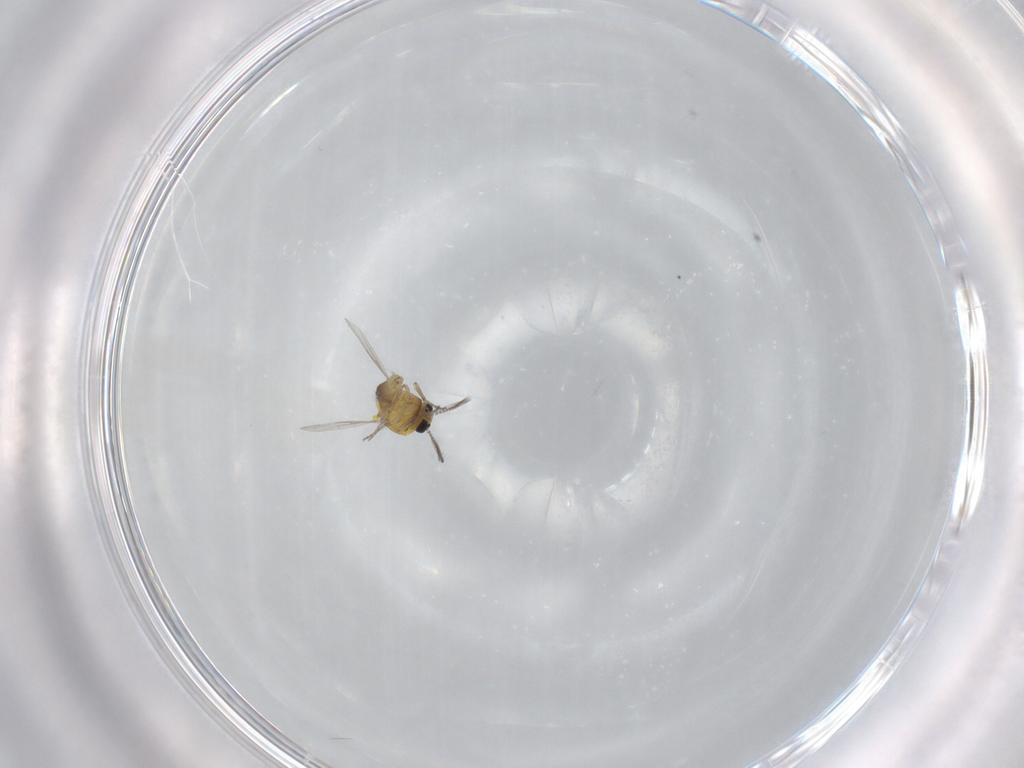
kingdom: Animalia
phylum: Arthropoda
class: Insecta
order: Diptera
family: Ceratopogonidae
